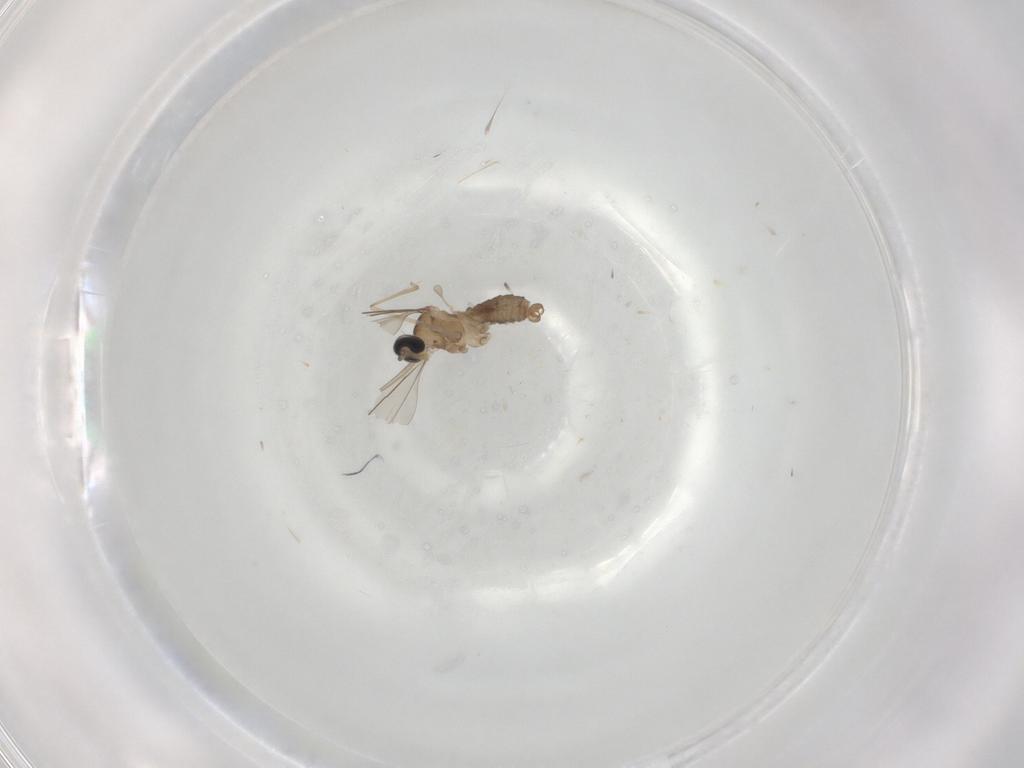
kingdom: Animalia
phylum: Arthropoda
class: Insecta
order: Diptera
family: Cecidomyiidae
